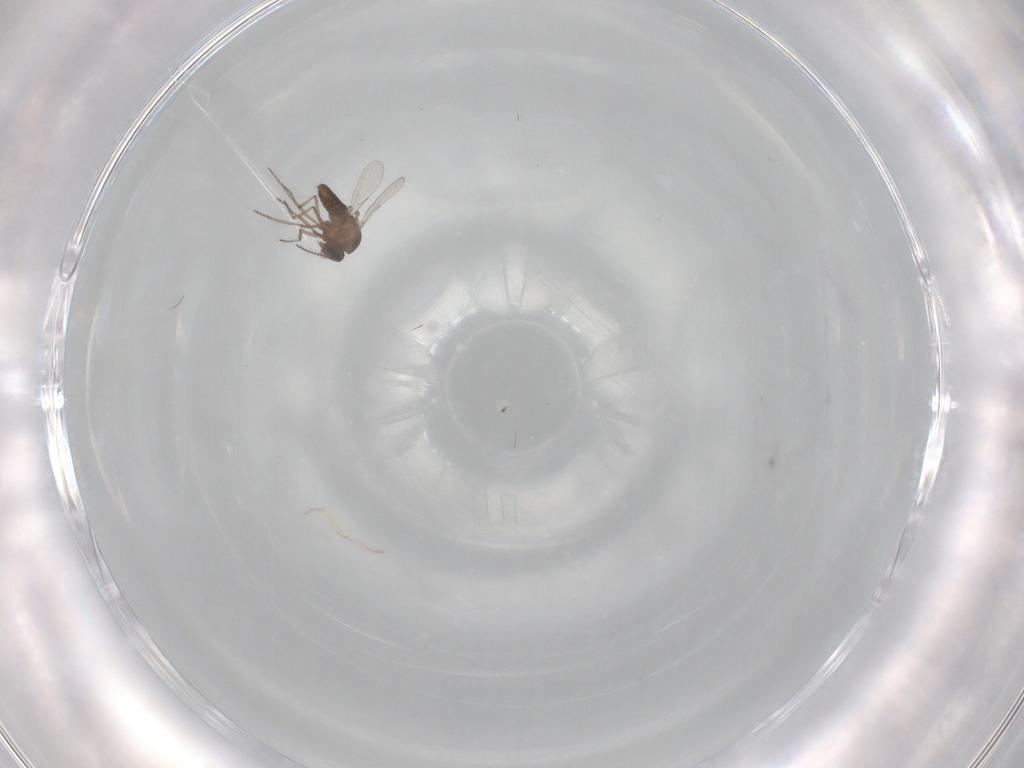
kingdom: Animalia
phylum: Arthropoda
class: Insecta
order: Diptera
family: Ceratopogonidae
